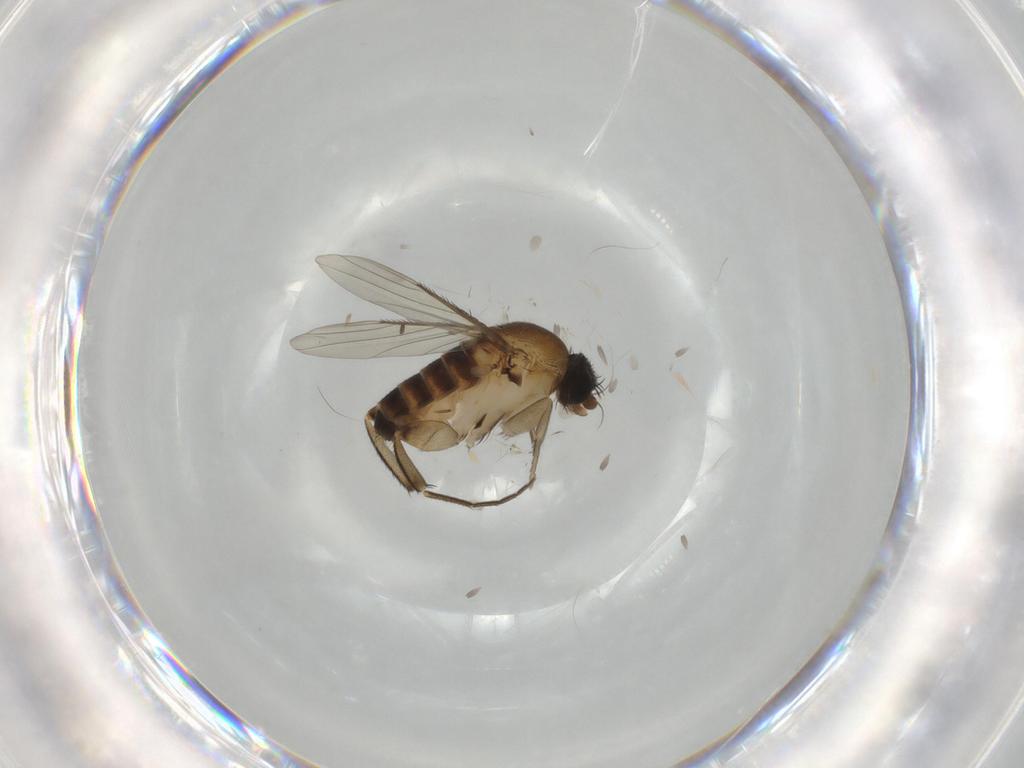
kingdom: Animalia
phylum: Arthropoda
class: Insecta
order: Diptera
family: Phoridae
